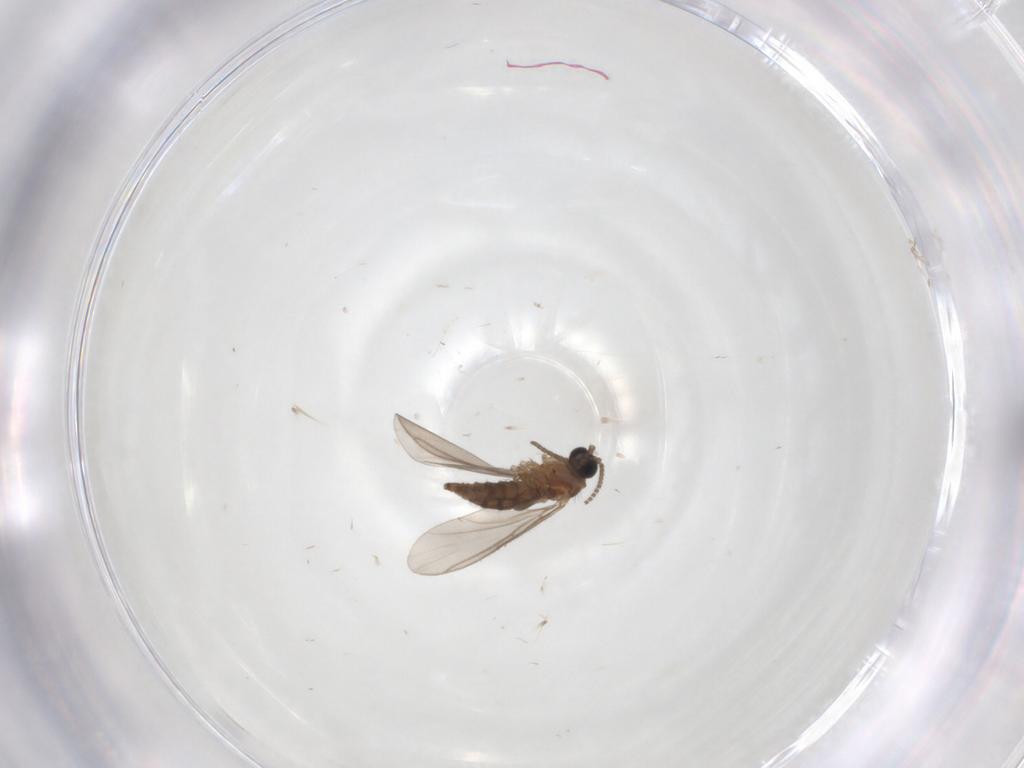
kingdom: Animalia
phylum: Arthropoda
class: Insecta
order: Diptera
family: Sciaridae
